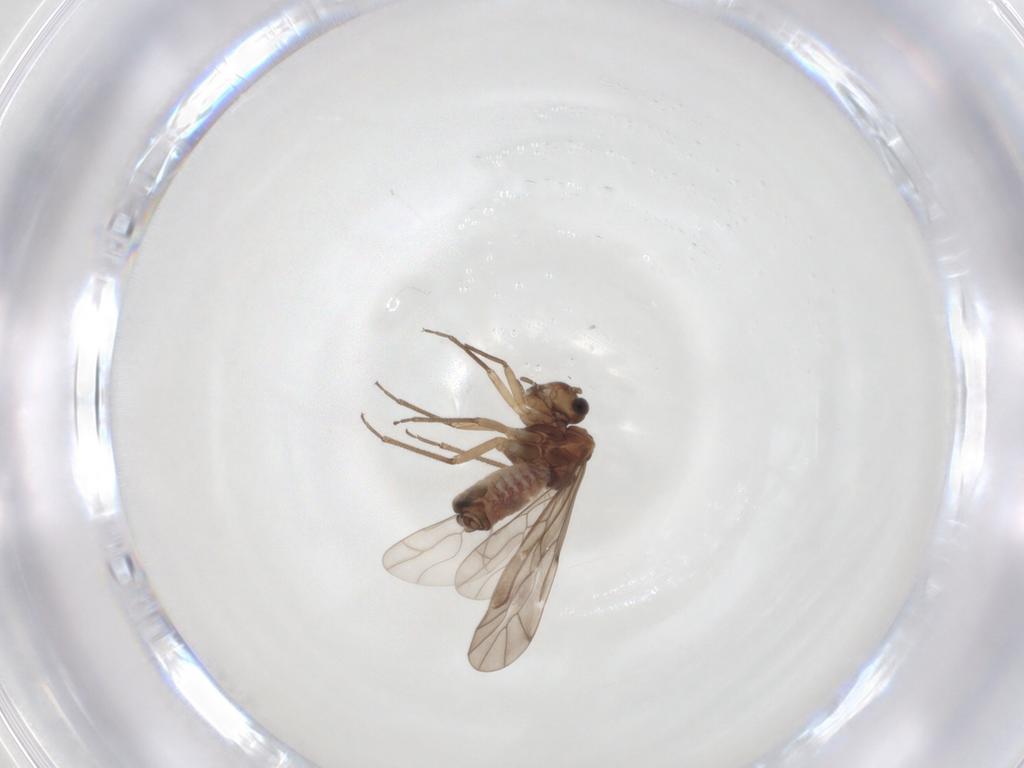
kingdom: Animalia
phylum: Arthropoda
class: Insecta
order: Psocodea
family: Peripsocidae
